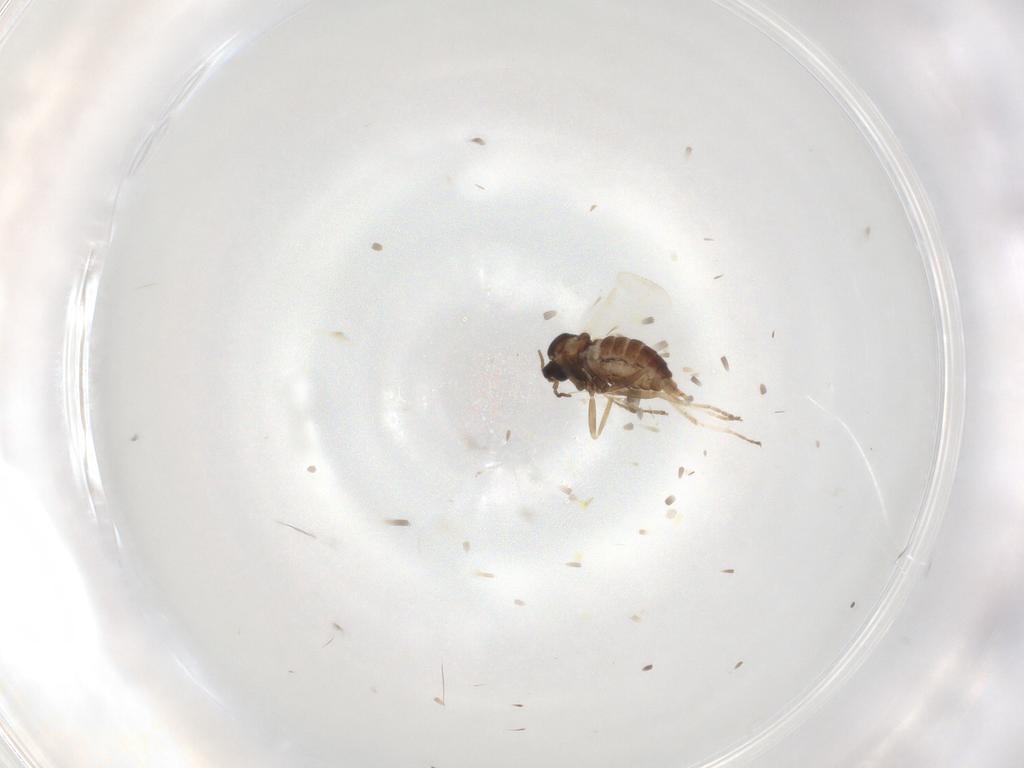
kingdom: Animalia
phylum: Arthropoda
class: Insecta
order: Diptera
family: Cecidomyiidae
